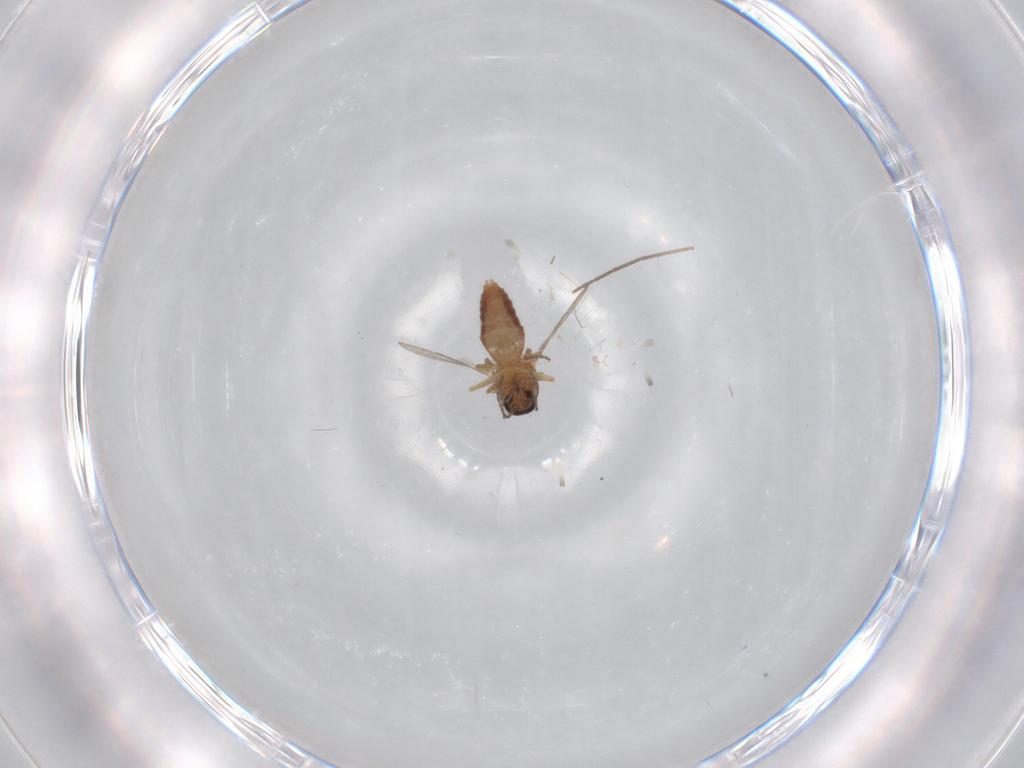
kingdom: Animalia
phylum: Arthropoda
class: Insecta
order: Diptera
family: Ceratopogonidae
